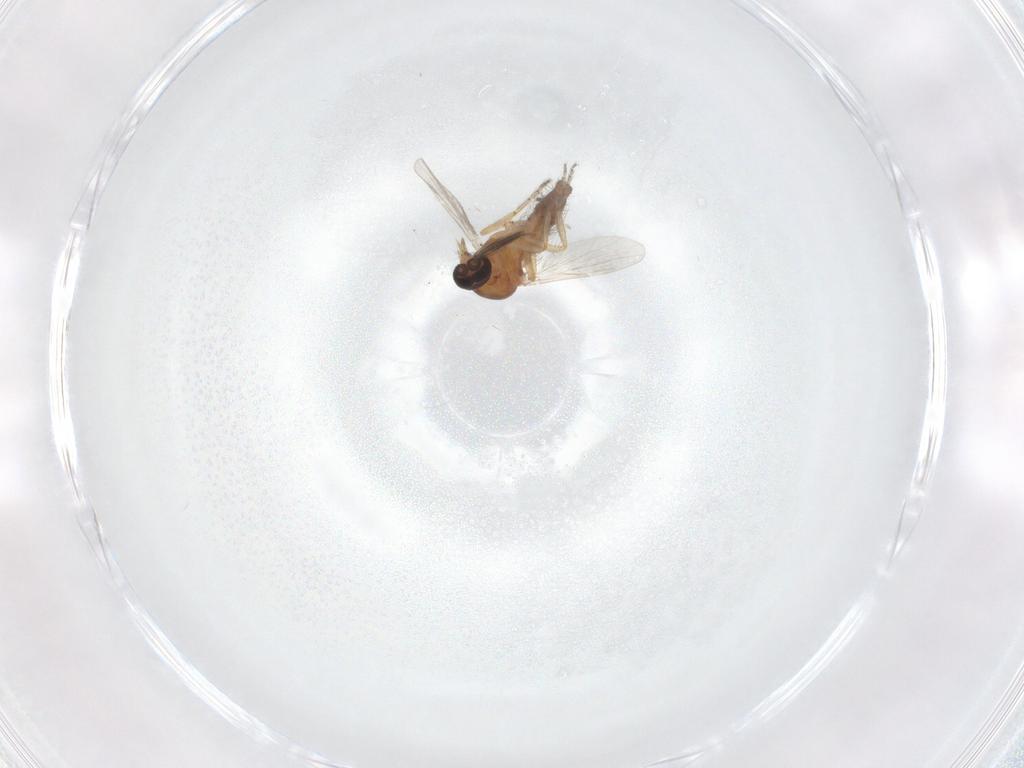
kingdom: Animalia
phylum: Arthropoda
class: Insecta
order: Diptera
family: Ceratopogonidae
